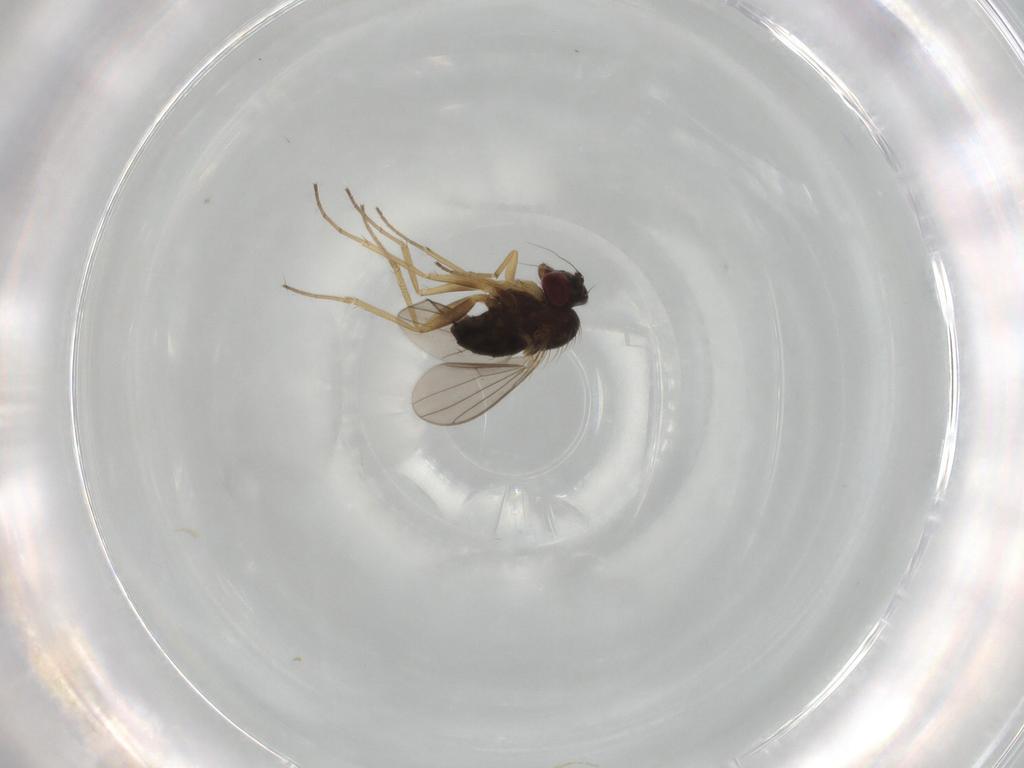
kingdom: Animalia
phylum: Arthropoda
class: Insecta
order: Diptera
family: Dolichopodidae
